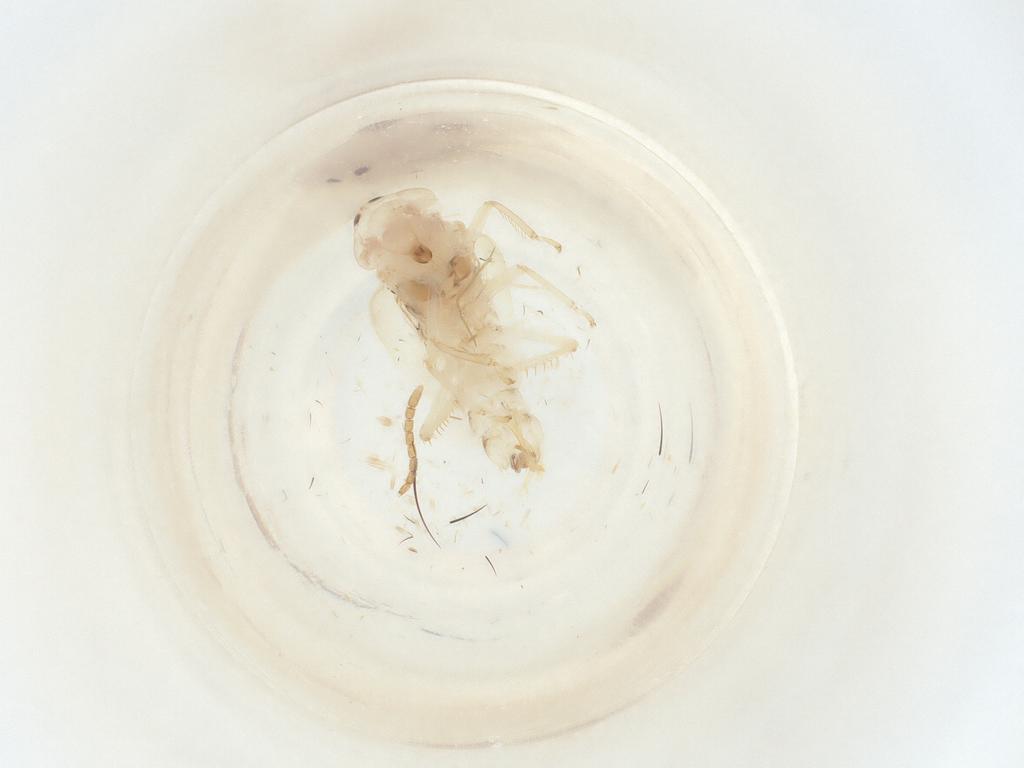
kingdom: Animalia
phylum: Arthropoda
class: Insecta
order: Hemiptera
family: Cicadellidae
